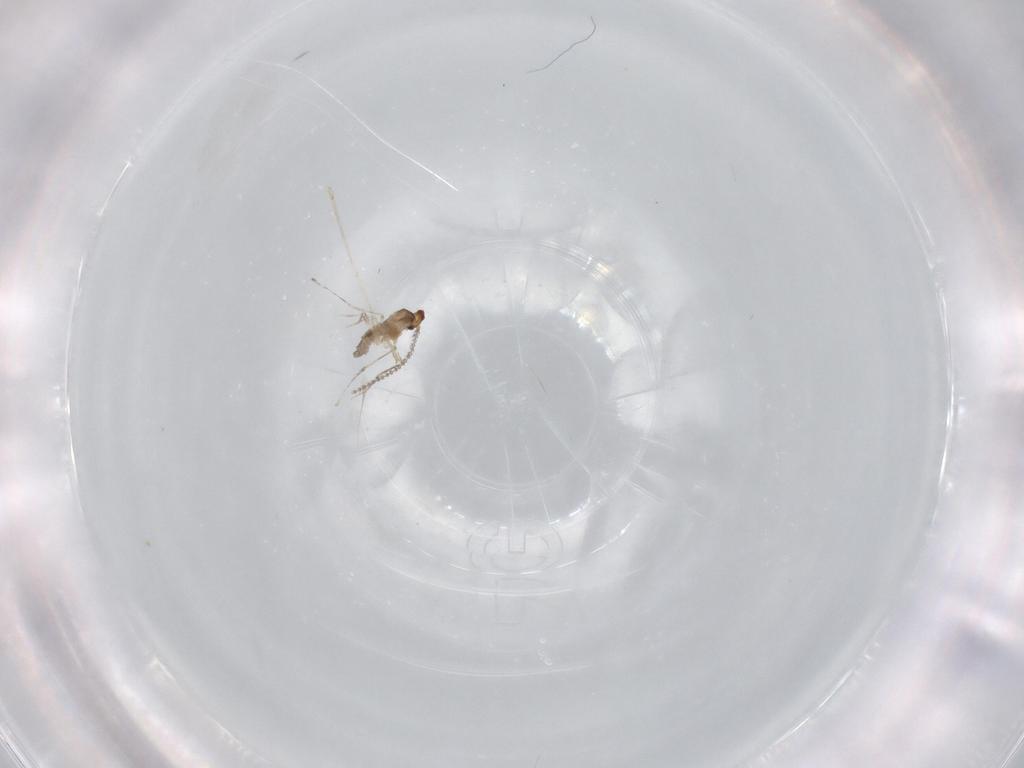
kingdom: Animalia
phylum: Arthropoda
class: Insecta
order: Diptera
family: Cecidomyiidae
